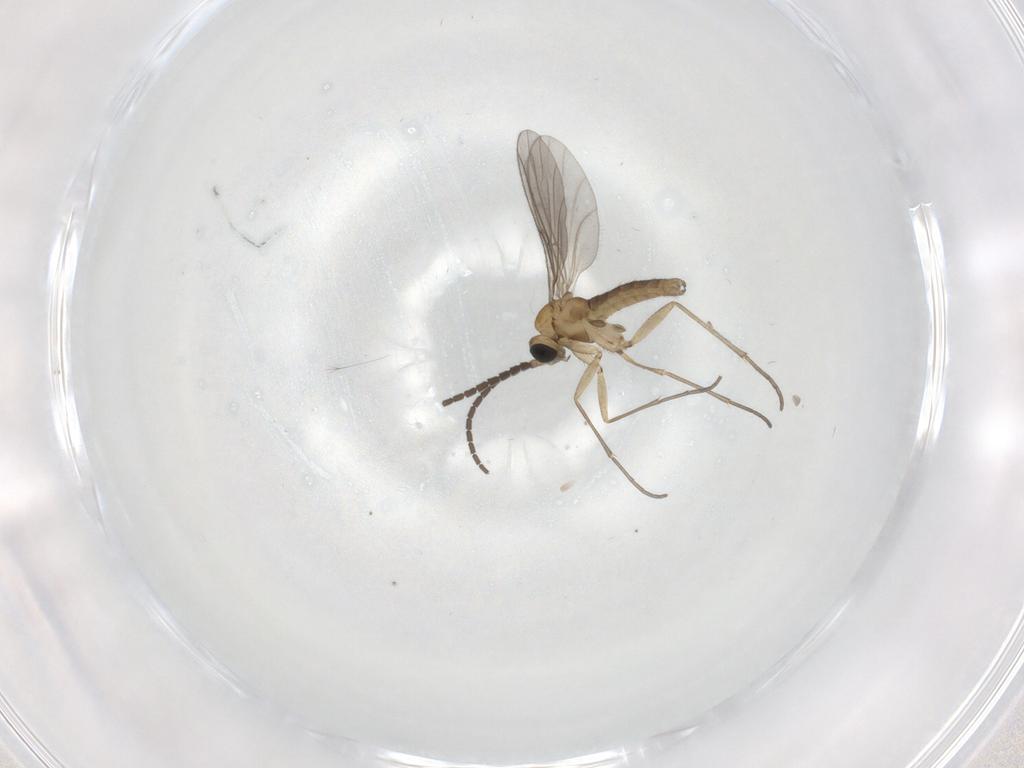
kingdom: Animalia
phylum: Arthropoda
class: Insecta
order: Diptera
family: Sciaridae
